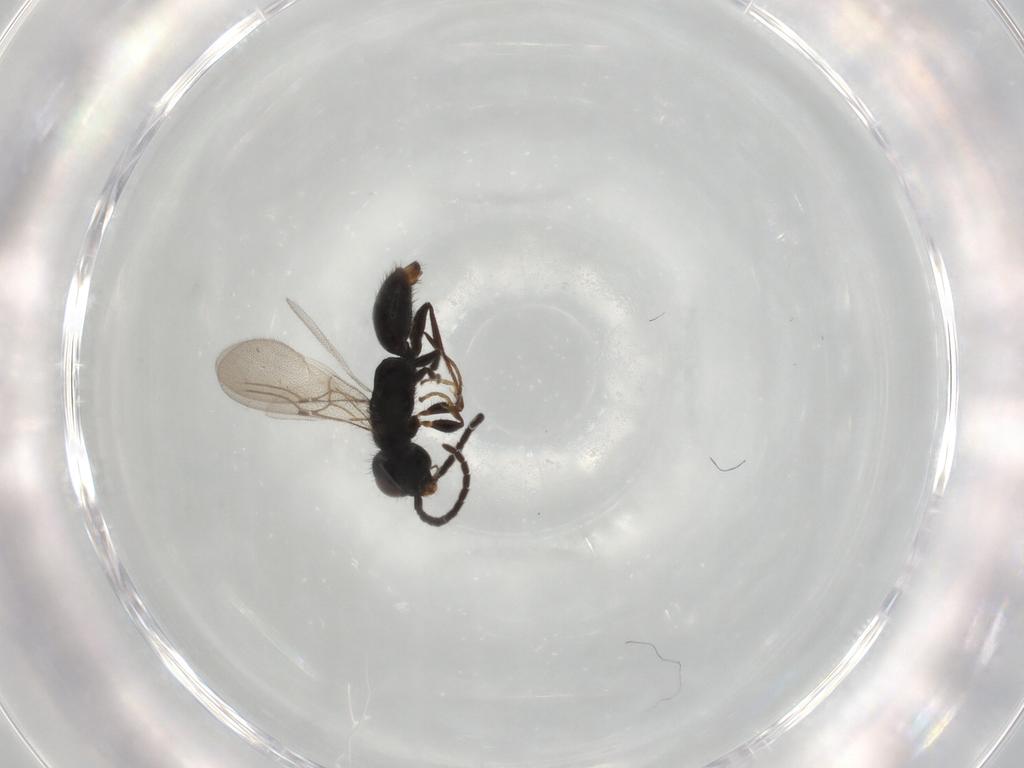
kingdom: Animalia
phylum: Arthropoda
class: Insecta
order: Hymenoptera
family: Bethylidae
